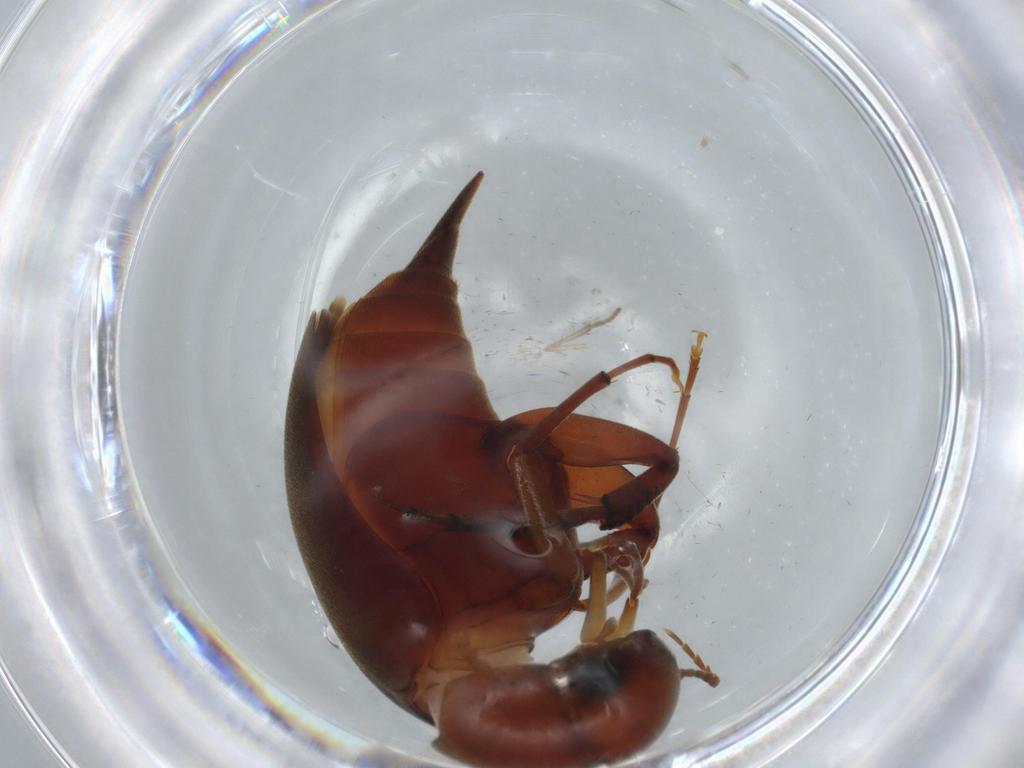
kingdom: Animalia
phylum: Arthropoda
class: Insecta
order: Coleoptera
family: Mordellidae
